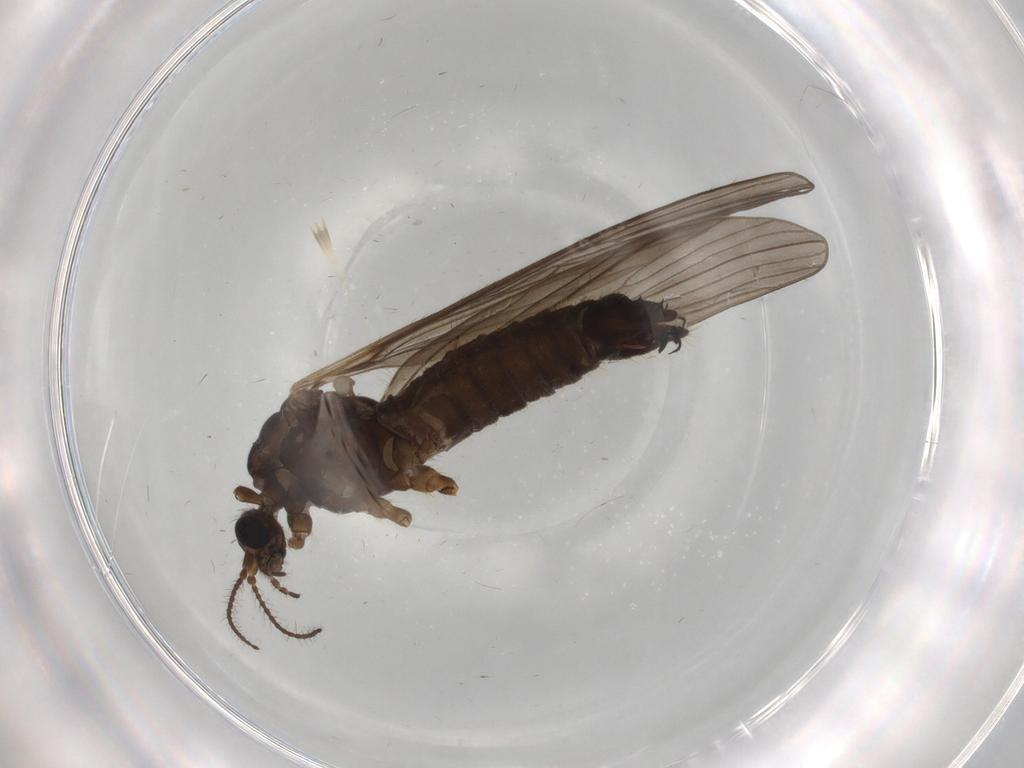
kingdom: Animalia
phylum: Arthropoda
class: Insecta
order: Diptera
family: Limoniidae
